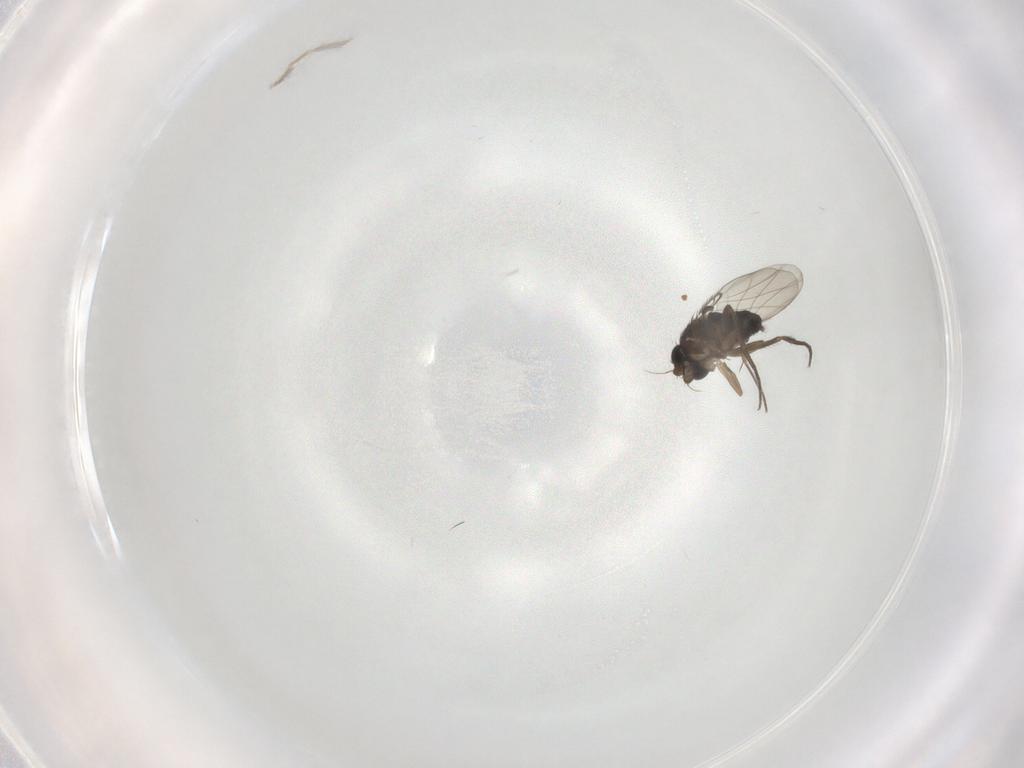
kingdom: Animalia
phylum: Arthropoda
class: Insecta
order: Diptera
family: Phoridae
